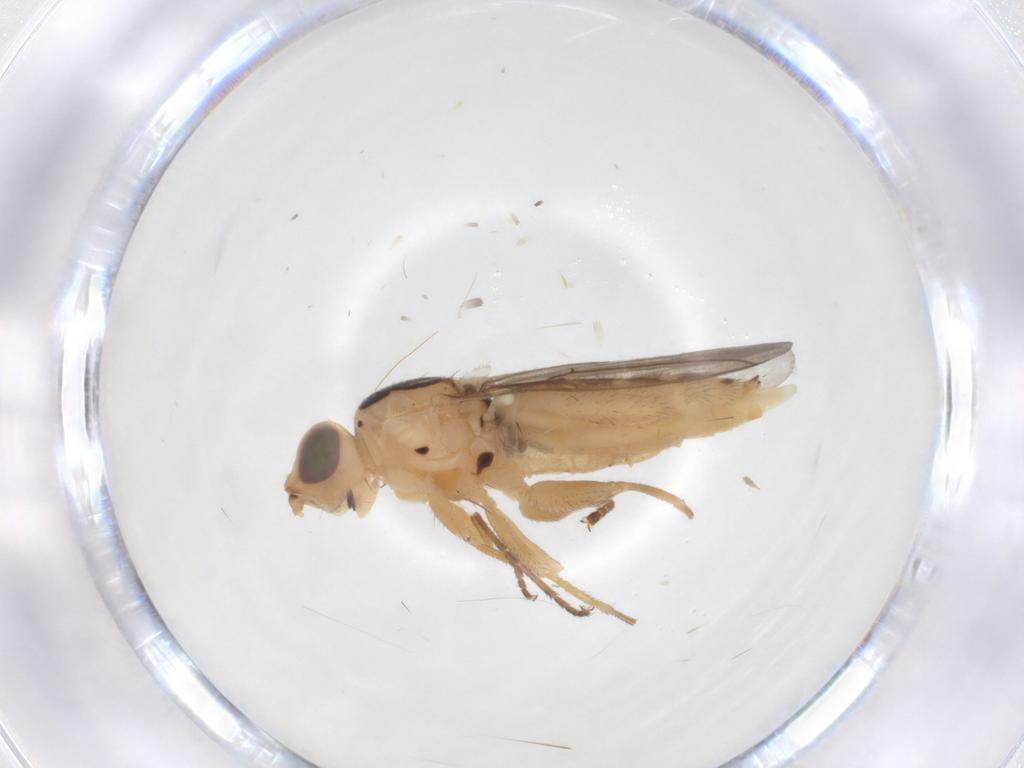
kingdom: Animalia
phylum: Arthropoda
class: Insecta
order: Diptera
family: Chloropidae
